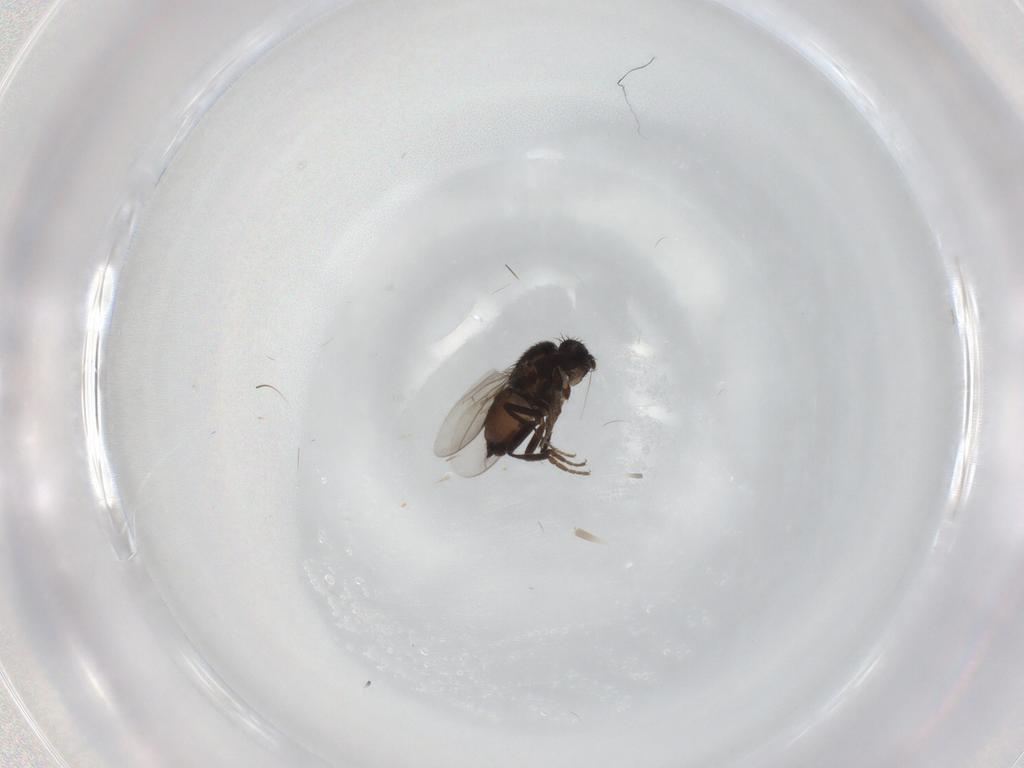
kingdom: Animalia
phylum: Arthropoda
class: Insecta
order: Diptera
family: Sphaeroceridae
